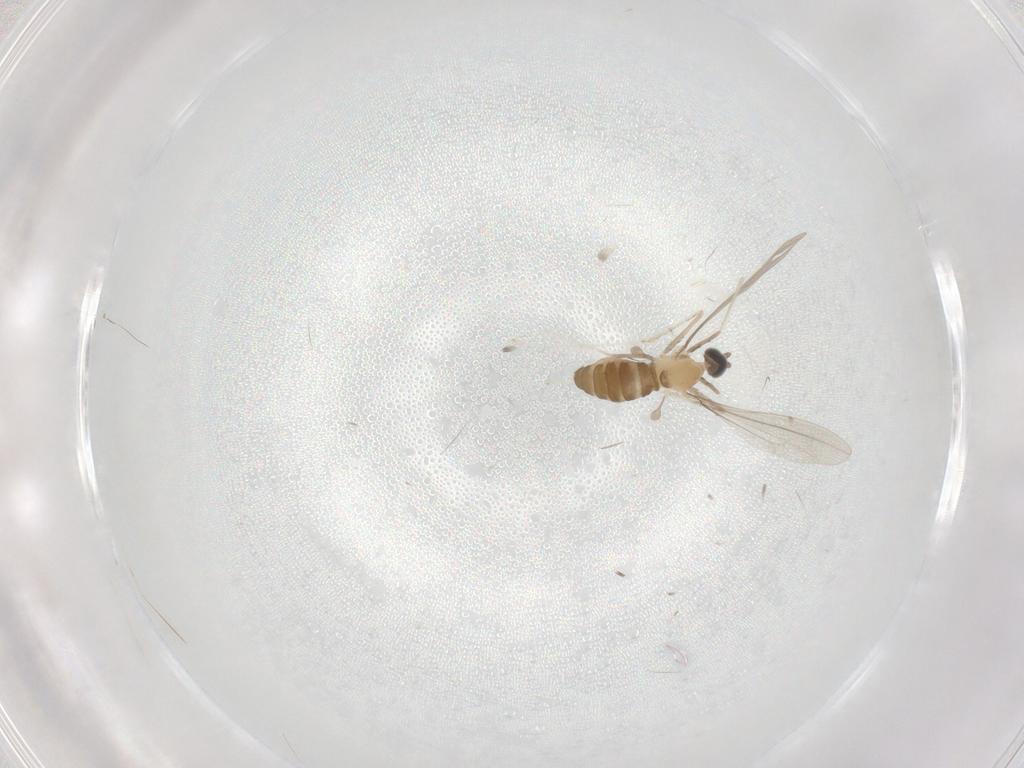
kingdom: Animalia
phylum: Arthropoda
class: Insecta
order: Diptera
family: Cecidomyiidae
